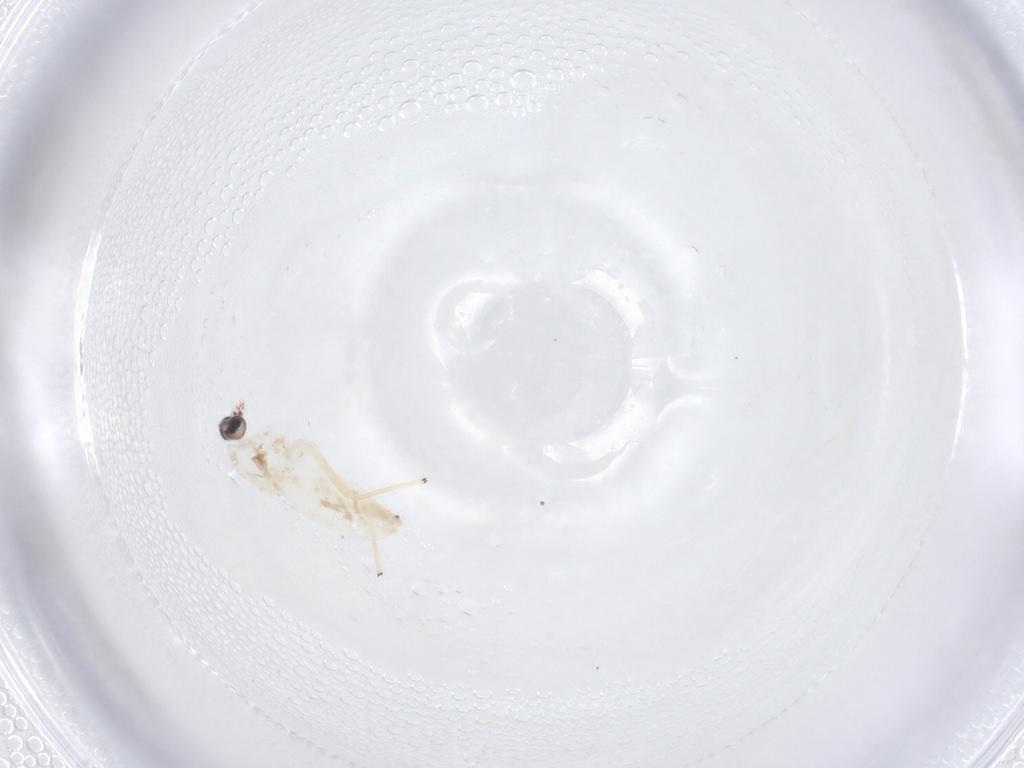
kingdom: Animalia
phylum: Arthropoda
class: Insecta
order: Diptera
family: Chironomidae
